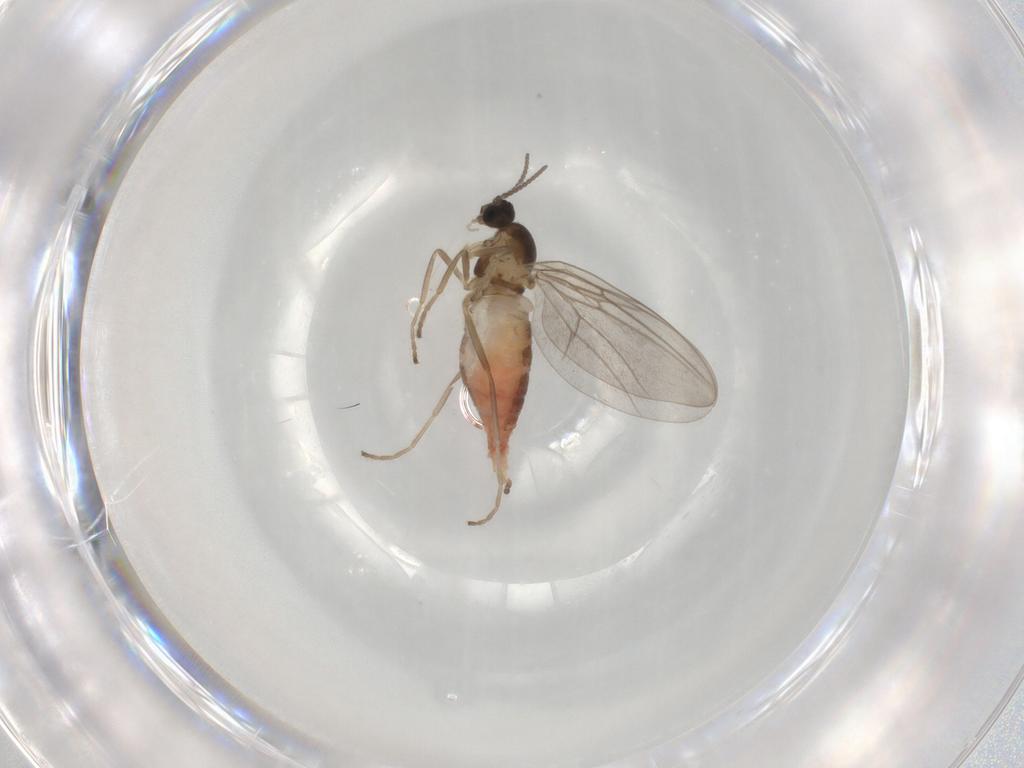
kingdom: Animalia
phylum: Arthropoda
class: Insecta
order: Diptera
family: Cecidomyiidae
